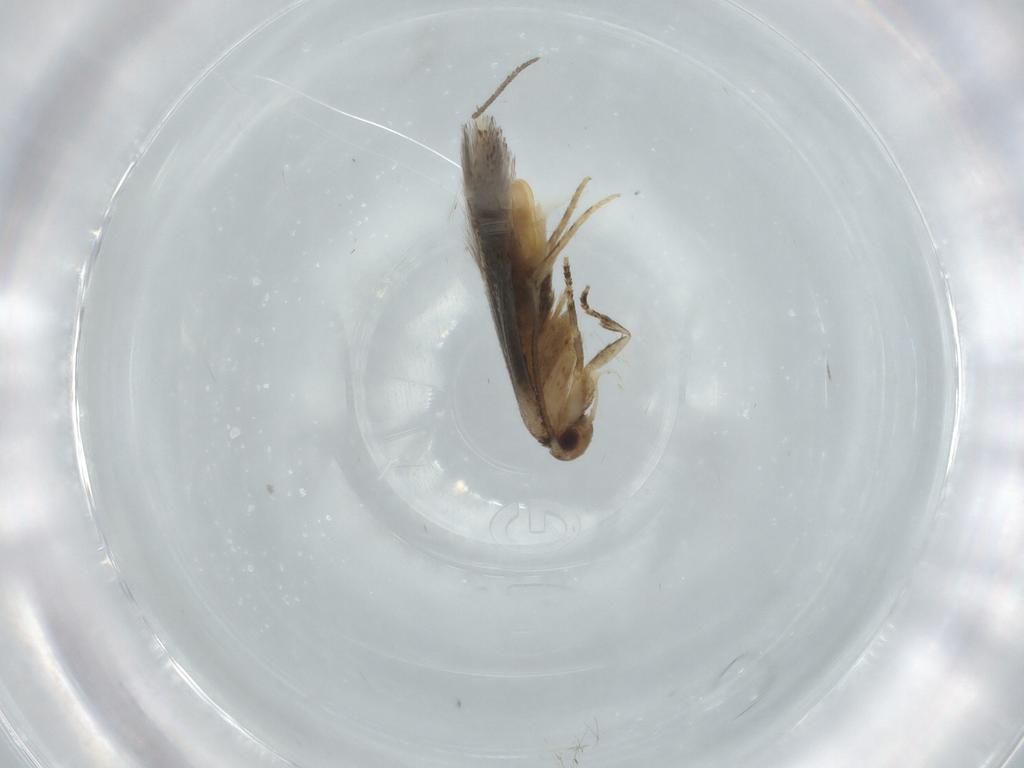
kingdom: Animalia
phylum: Arthropoda
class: Insecta
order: Lepidoptera
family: Elachistidae
